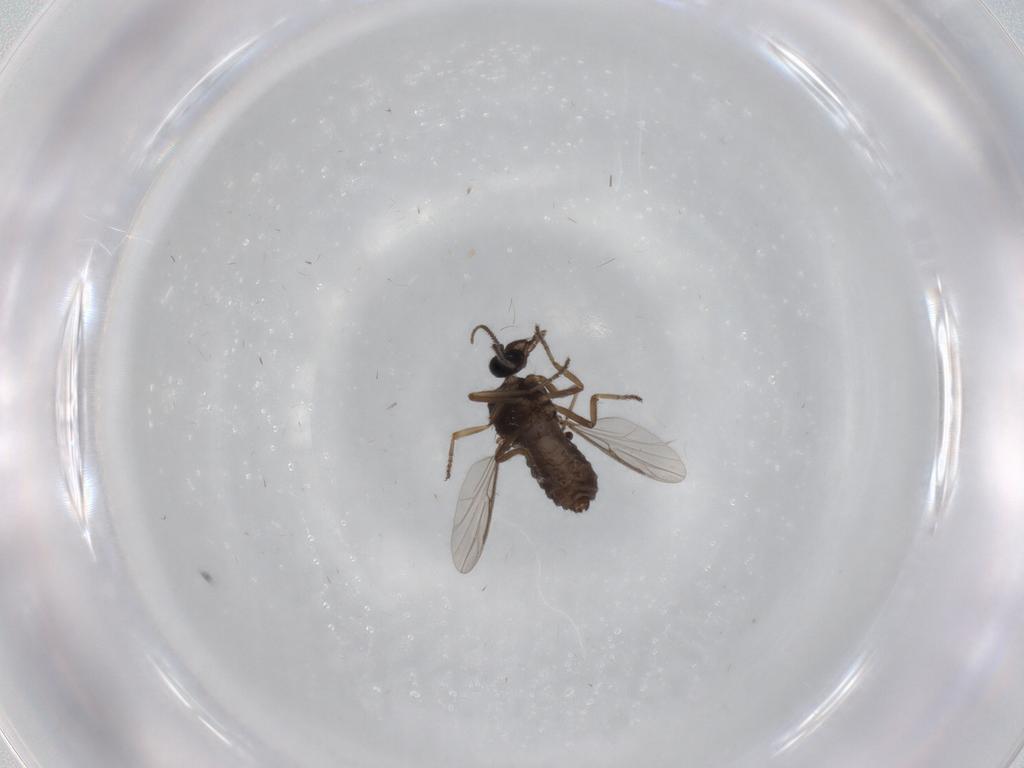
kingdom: Animalia
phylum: Arthropoda
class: Insecta
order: Diptera
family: Ceratopogonidae
